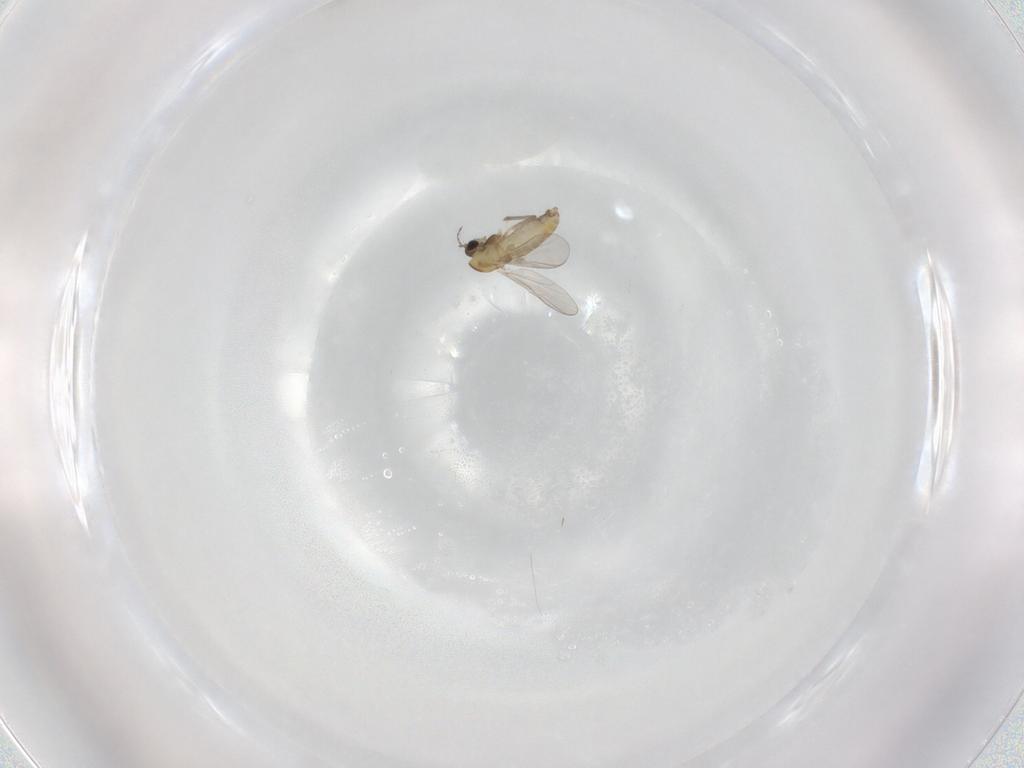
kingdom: Animalia
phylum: Arthropoda
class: Insecta
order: Diptera
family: Chironomidae
